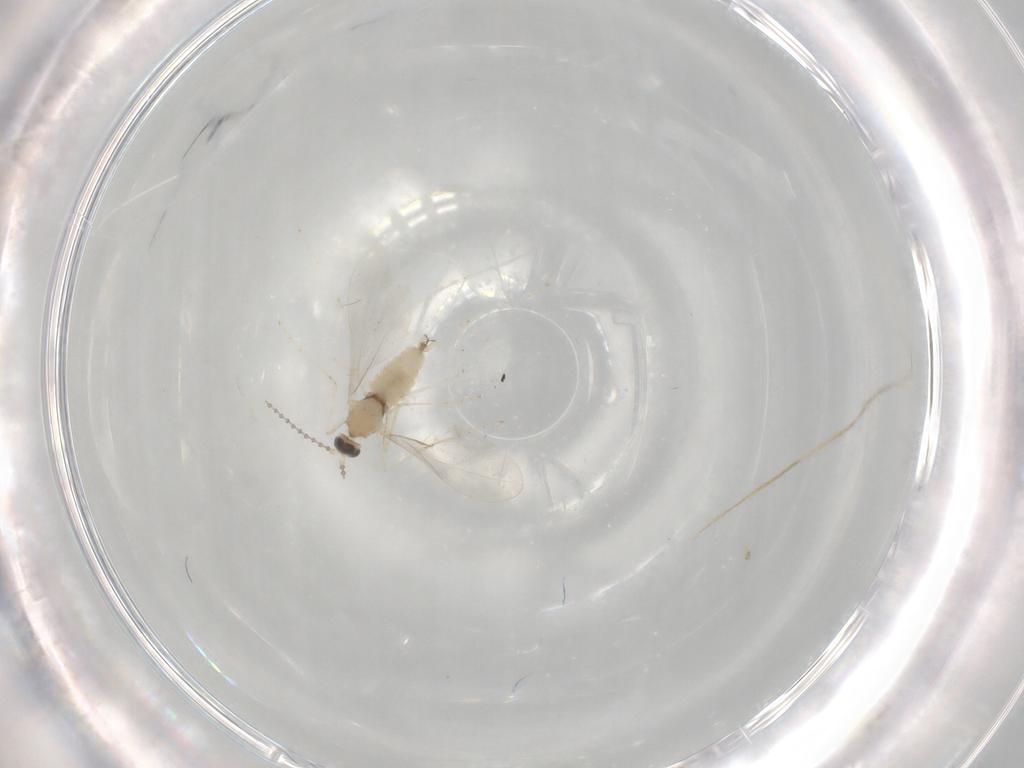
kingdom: Animalia
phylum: Arthropoda
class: Insecta
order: Diptera
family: Cecidomyiidae
